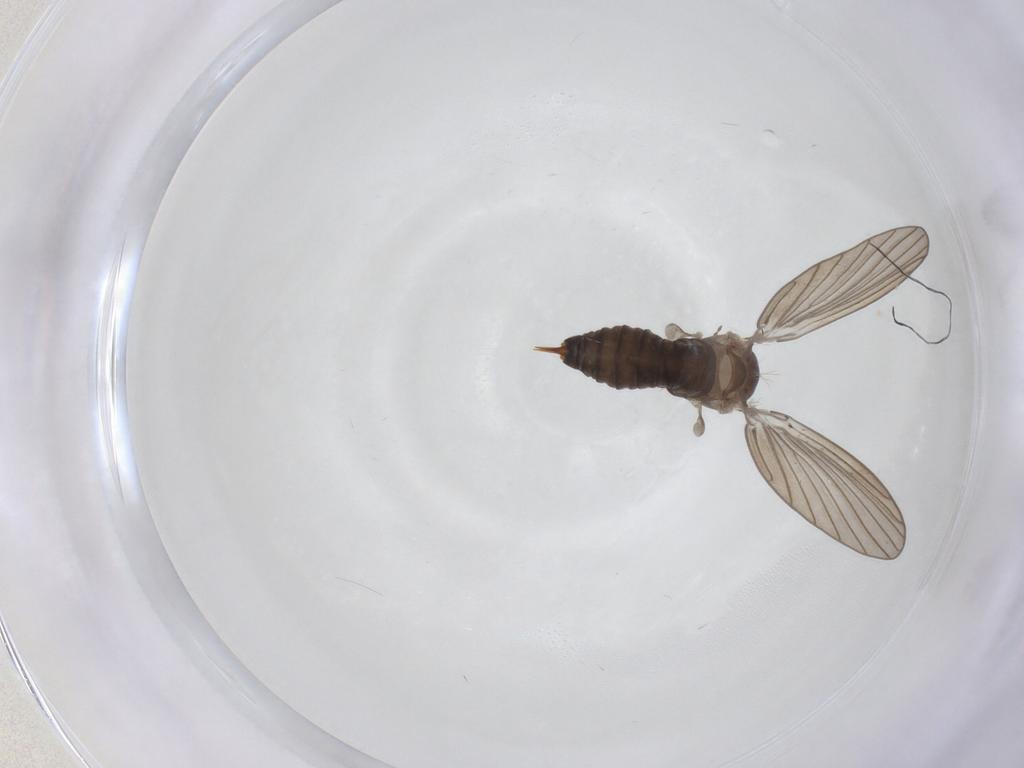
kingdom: Animalia
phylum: Arthropoda
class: Insecta
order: Diptera
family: Psychodidae
